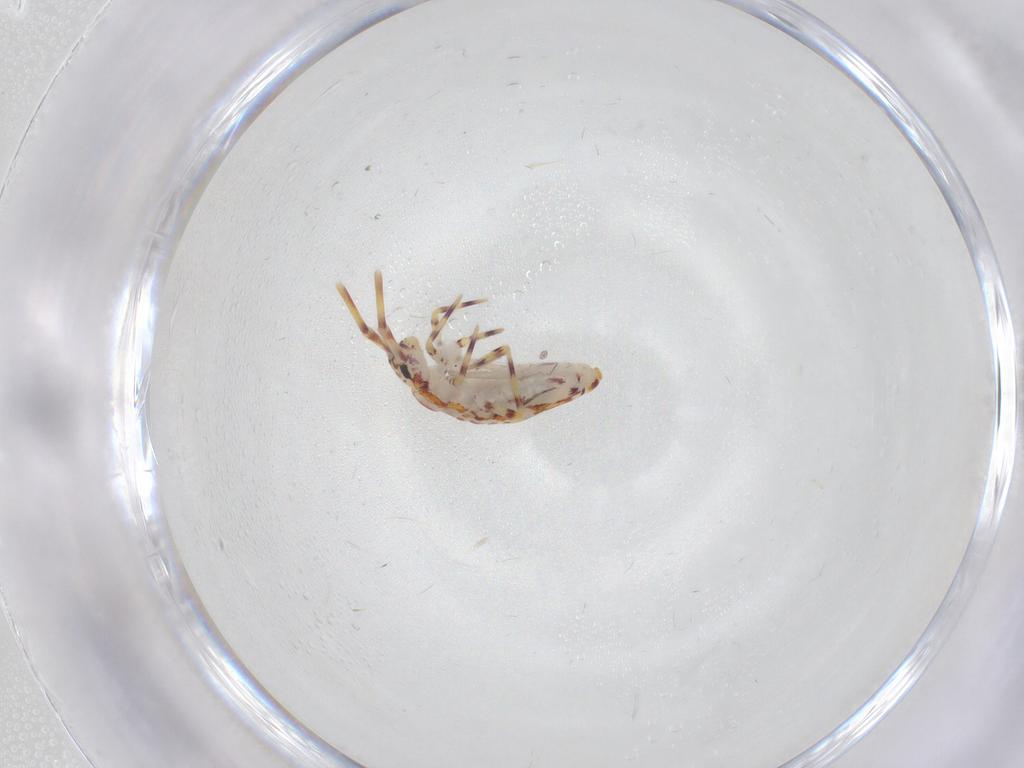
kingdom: Animalia
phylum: Arthropoda
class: Collembola
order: Entomobryomorpha
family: Entomobryidae
